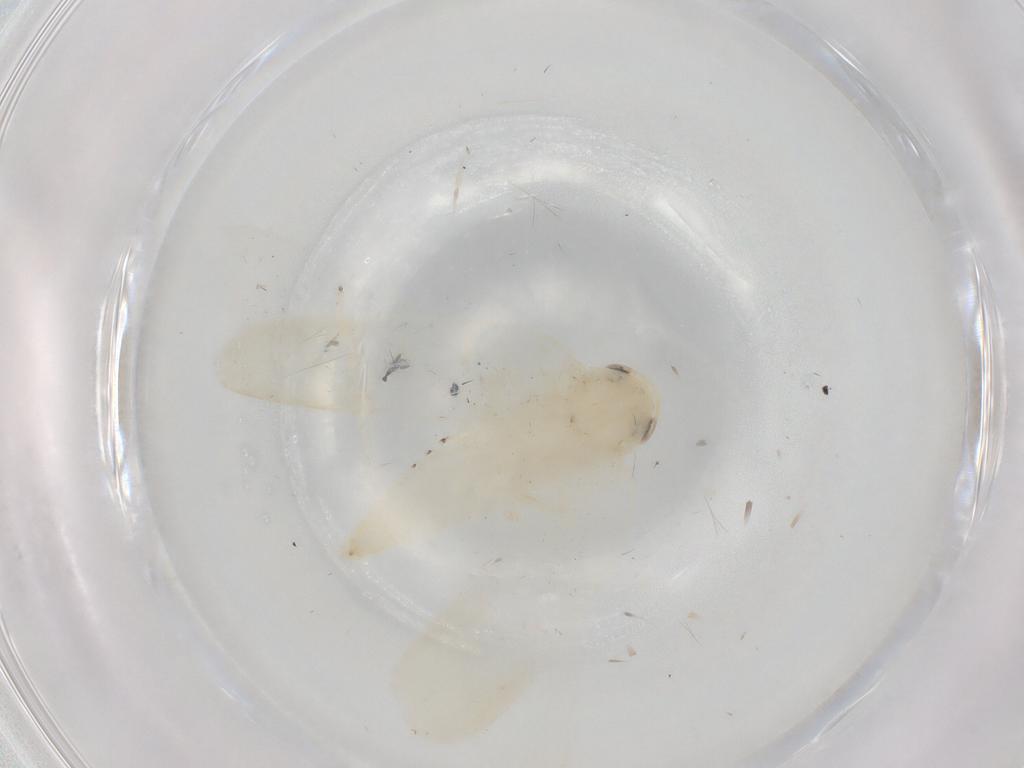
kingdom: Animalia
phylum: Arthropoda
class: Insecta
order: Hemiptera
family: Cicadellidae
